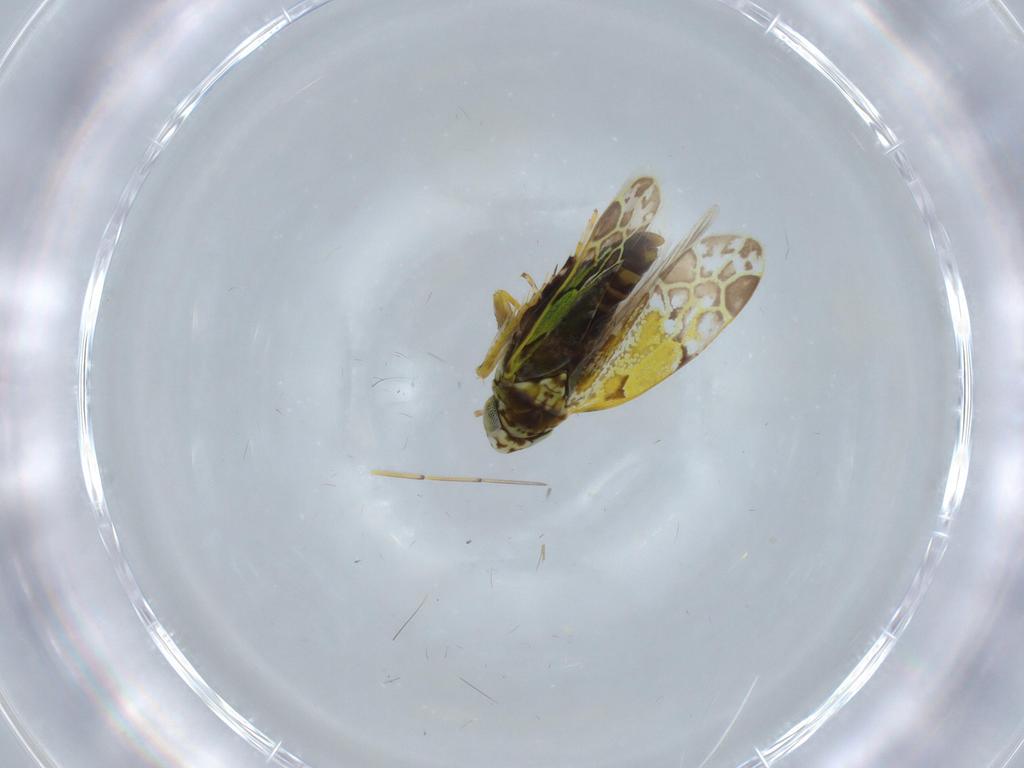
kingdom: Animalia
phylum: Arthropoda
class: Insecta
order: Hemiptera
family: Cicadellidae
